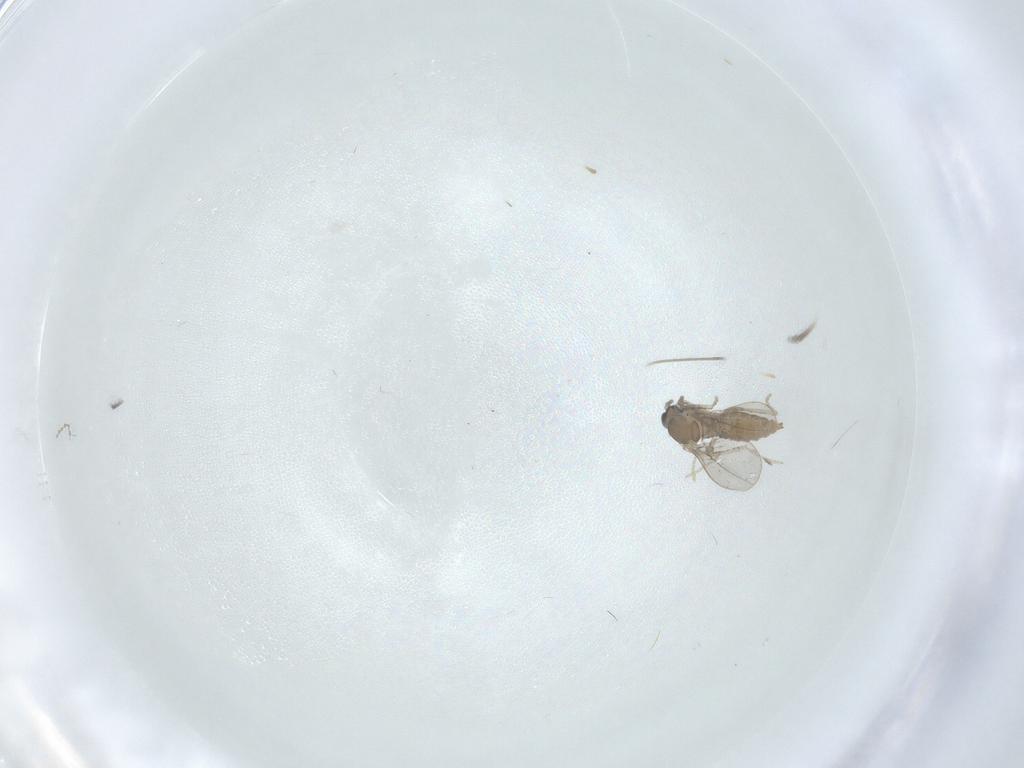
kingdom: Animalia
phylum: Arthropoda
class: Insecta
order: Diptera
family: Cecidomyiidae
